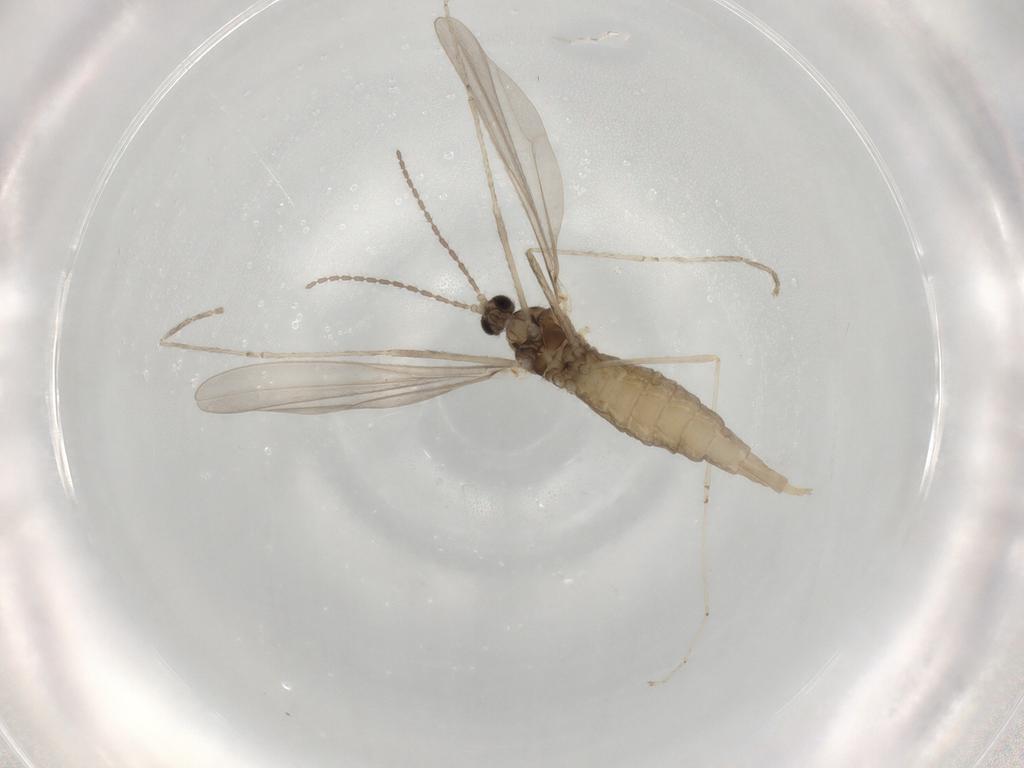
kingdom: Animalia
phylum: Arthropoda
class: Insecta
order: Diptera
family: Cecidomyiidae
